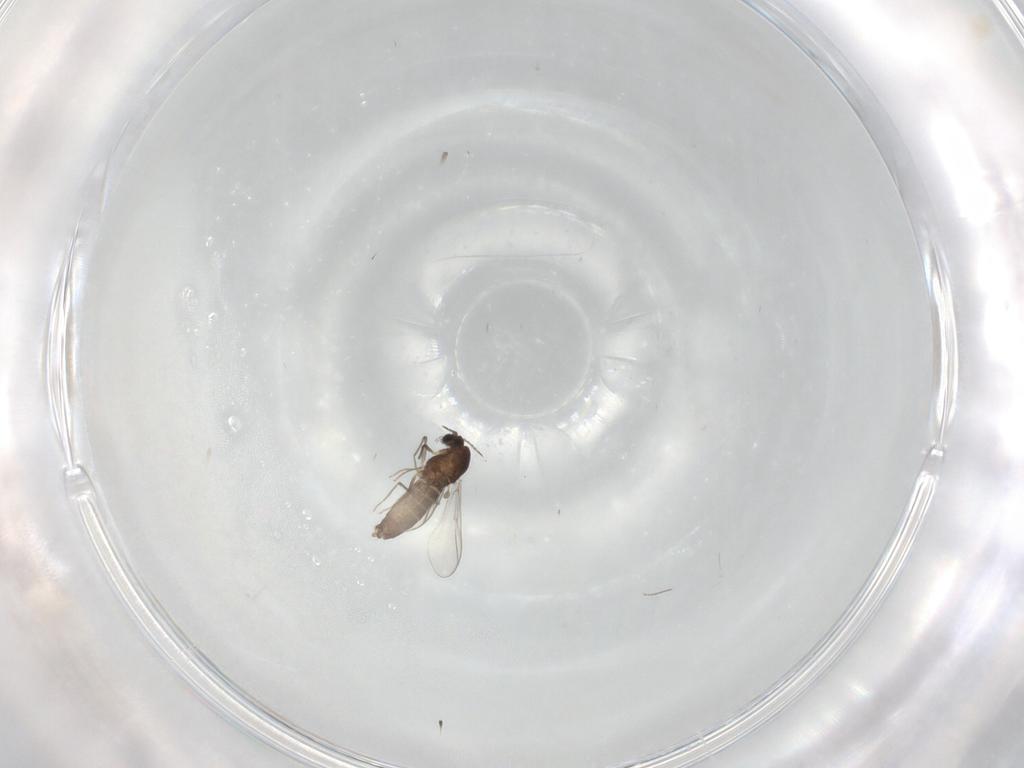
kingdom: Animalia
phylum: Arthropoda
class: Insecta
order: Diptera
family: Chironomidae
